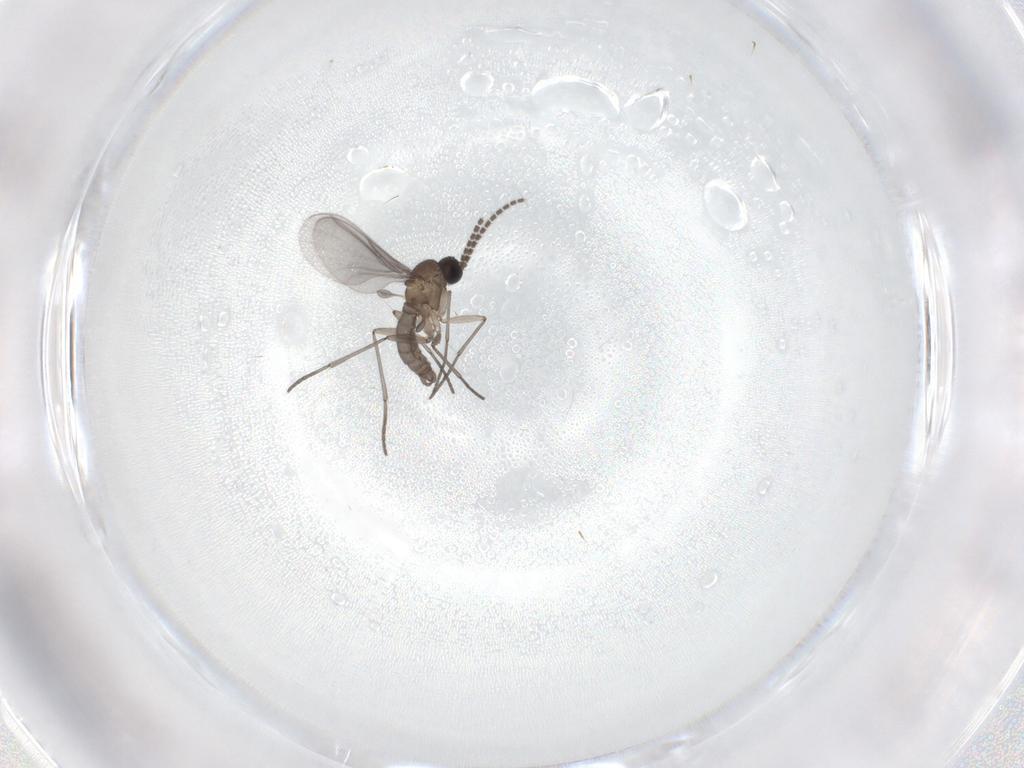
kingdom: Animalia
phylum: Arthropoda
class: Insecta
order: Diptera
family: Chironomidae
